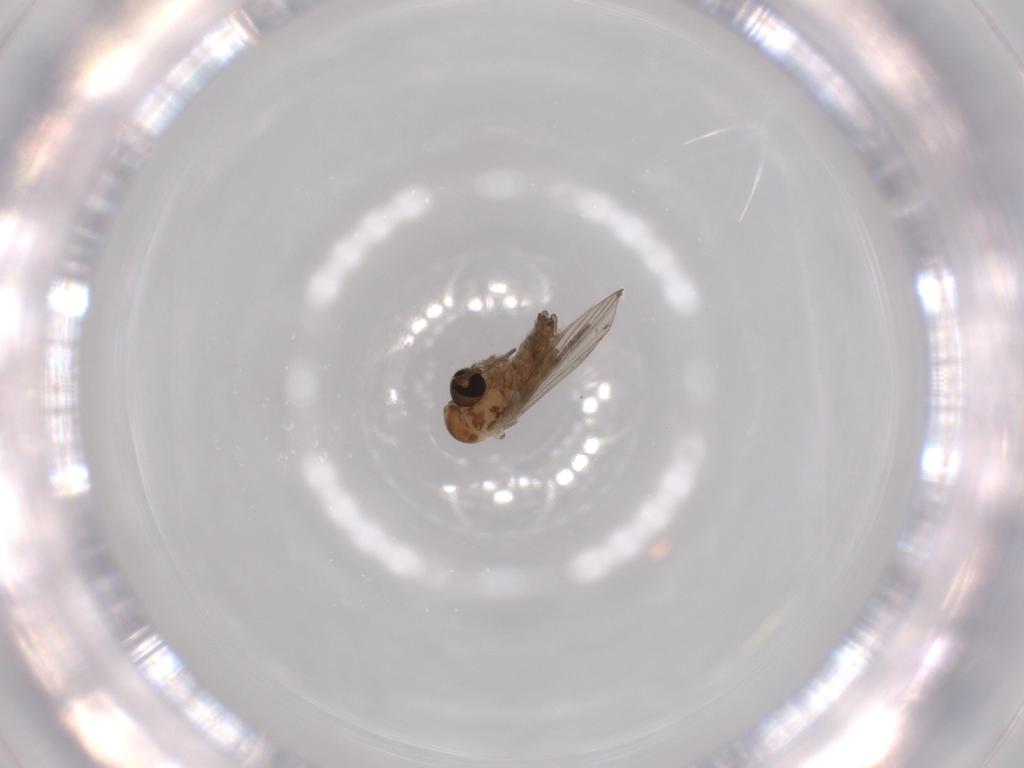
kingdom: Animalia
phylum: Arthropoda
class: Insecta
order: Diptera
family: Psychodidae
